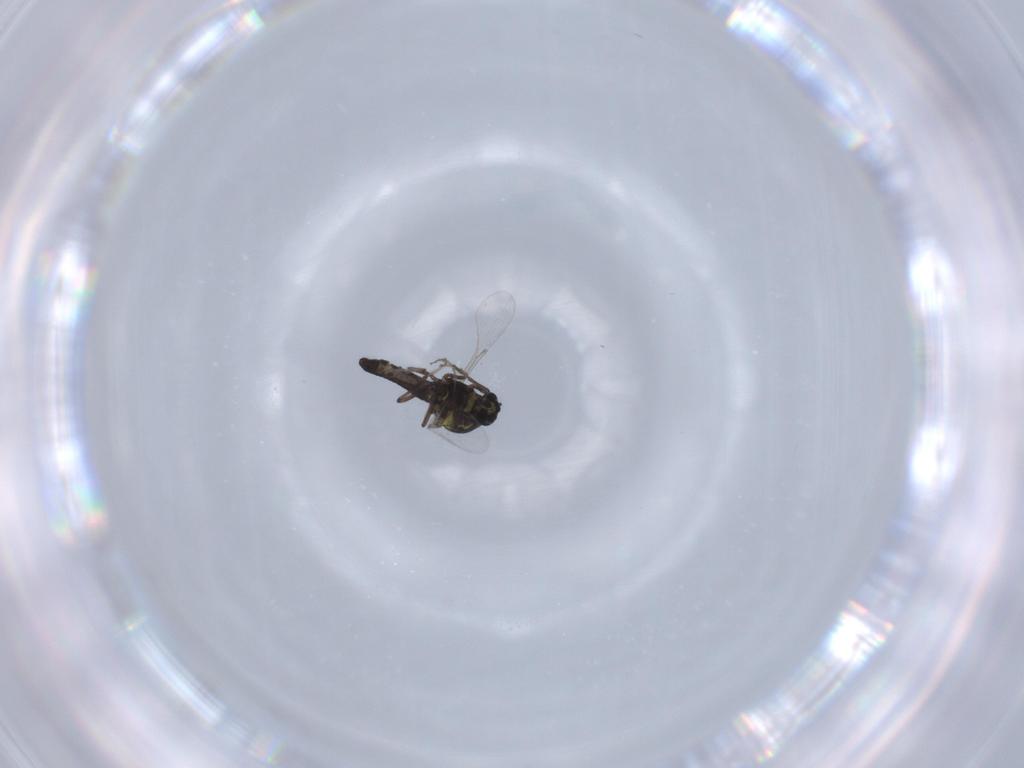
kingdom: Animalia
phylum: Arthropoda
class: Insecta
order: Diptera
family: Ceratopogonidae
